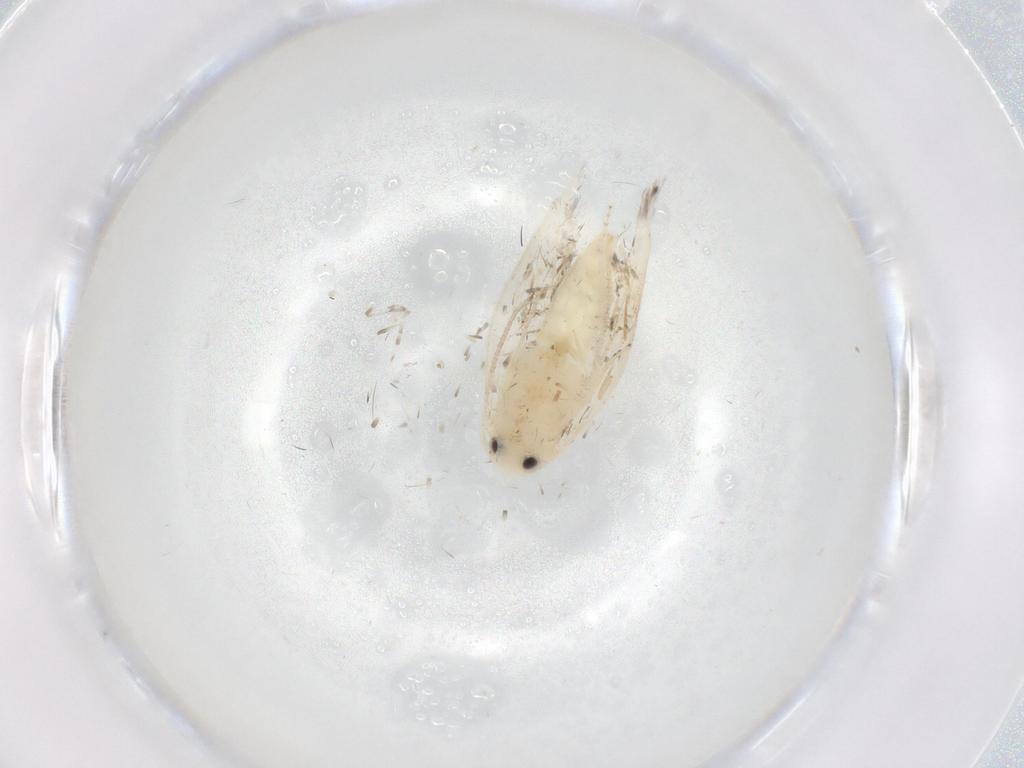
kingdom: Animalia
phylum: Arthropoda
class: Insecta
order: Lepidoptera
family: Gelechiidae
